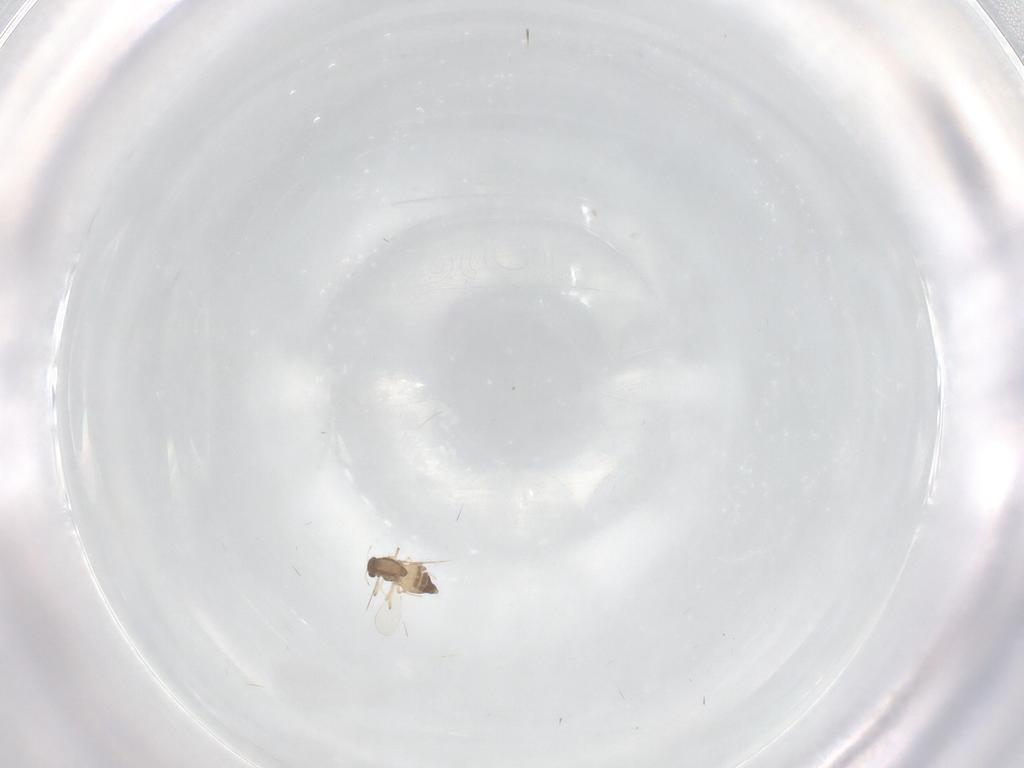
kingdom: Animalia
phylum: Arthropoda
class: Insecta
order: Diptera
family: Chironomidae
